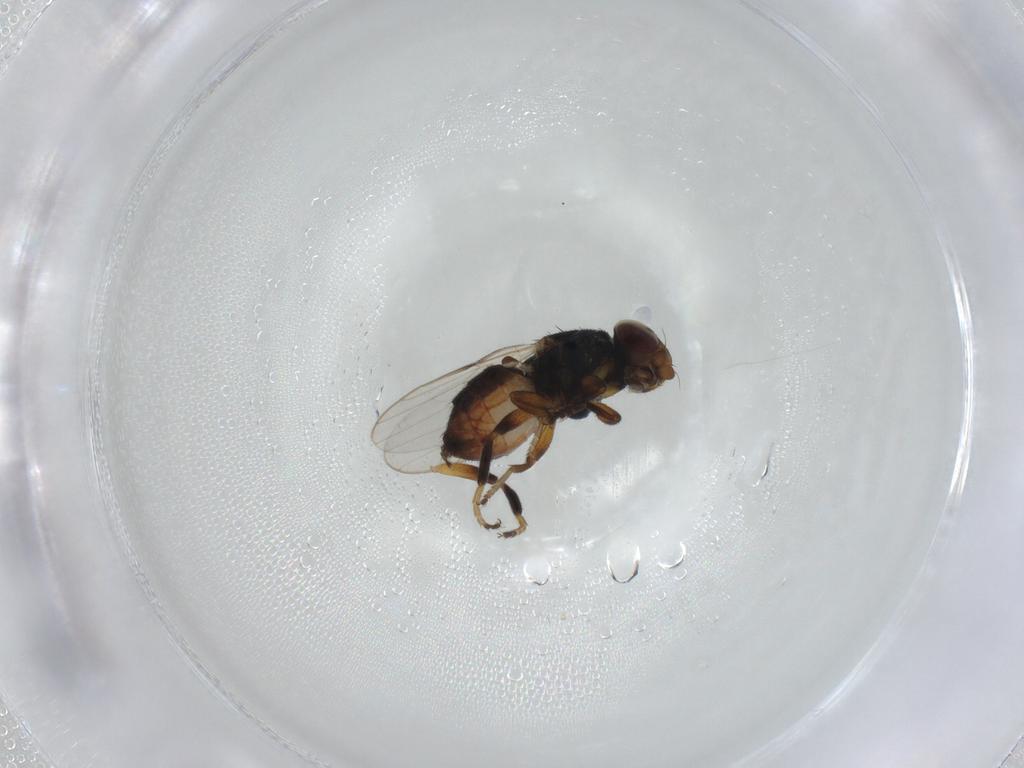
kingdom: Animalia
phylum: Arthropoda
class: Insecta
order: Diptera
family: Chloropidae
